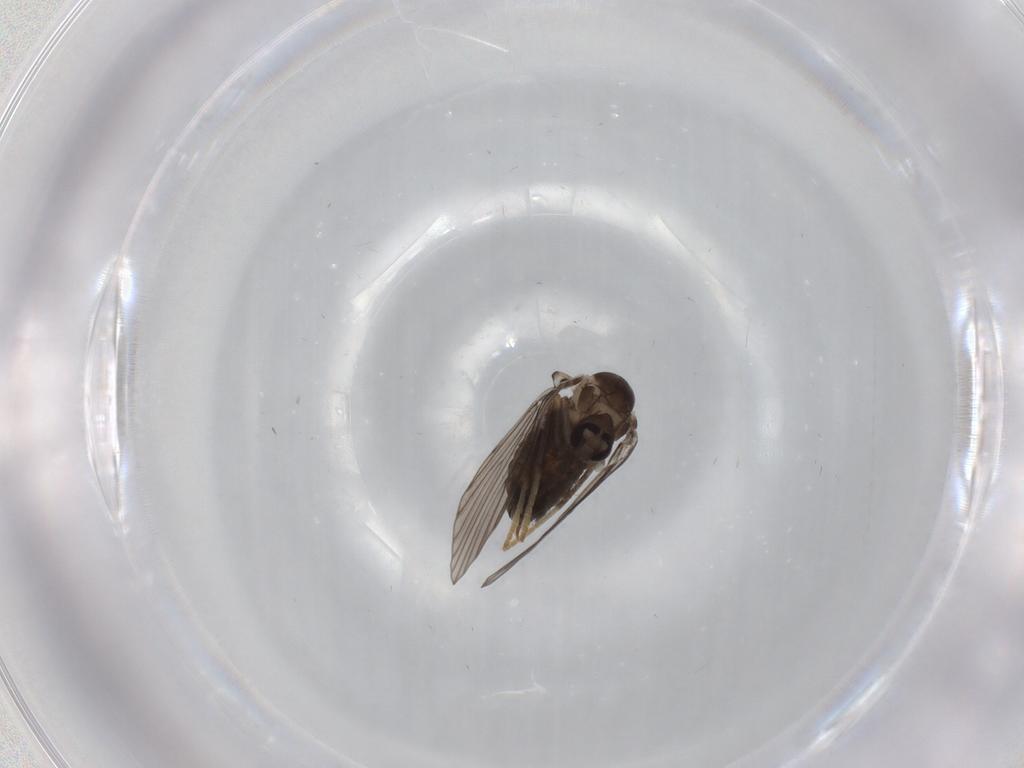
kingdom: Animalia
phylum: Arthropoda
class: Insecta
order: Diptera
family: Psychodidae
